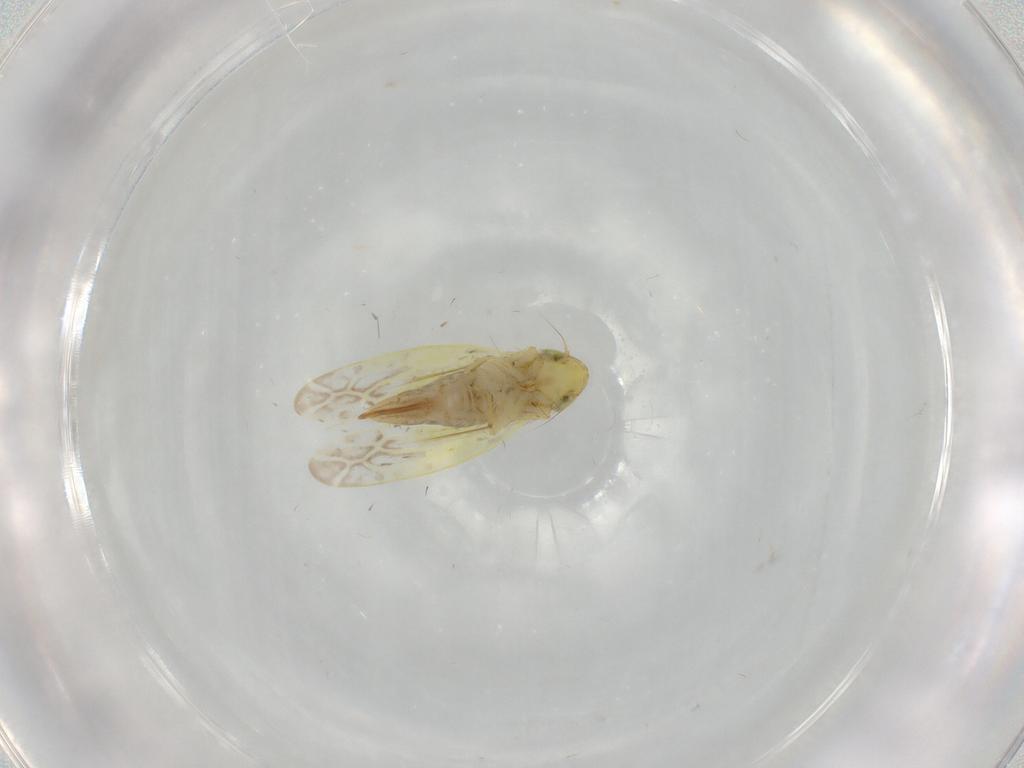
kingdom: Animalia
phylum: Arthropoda
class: Insecta
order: Hemiptera
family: Cicadellidae
